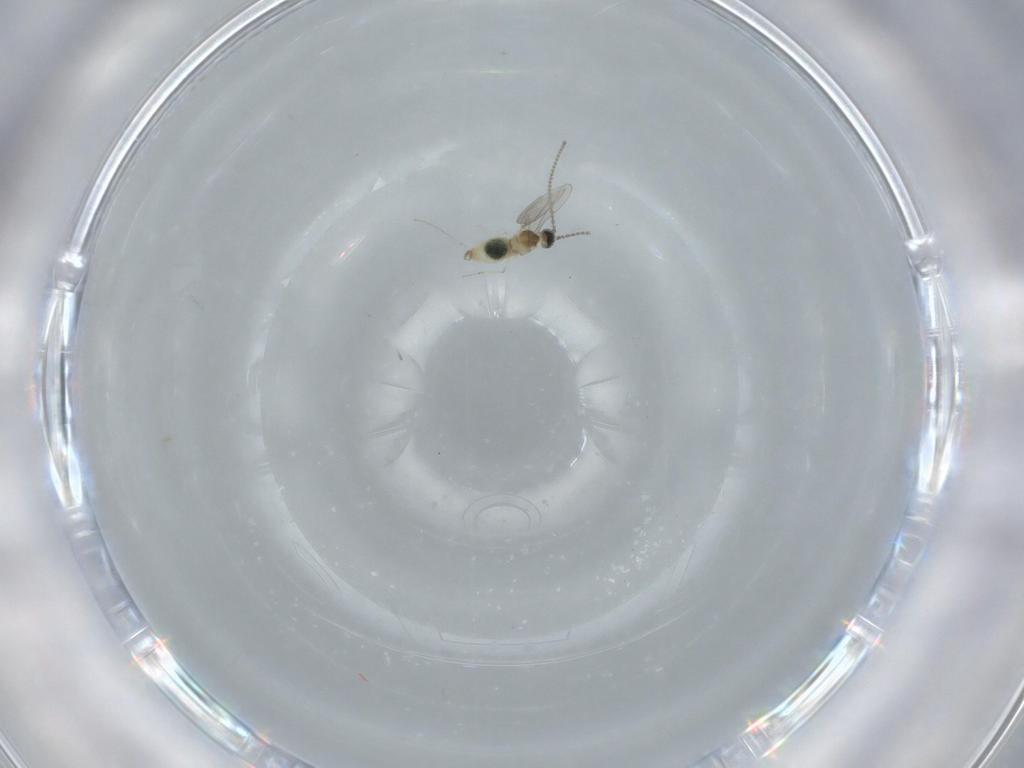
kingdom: Animalia
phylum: Arthropoda
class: Insecta
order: Diptera
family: Cecidomyiidae
